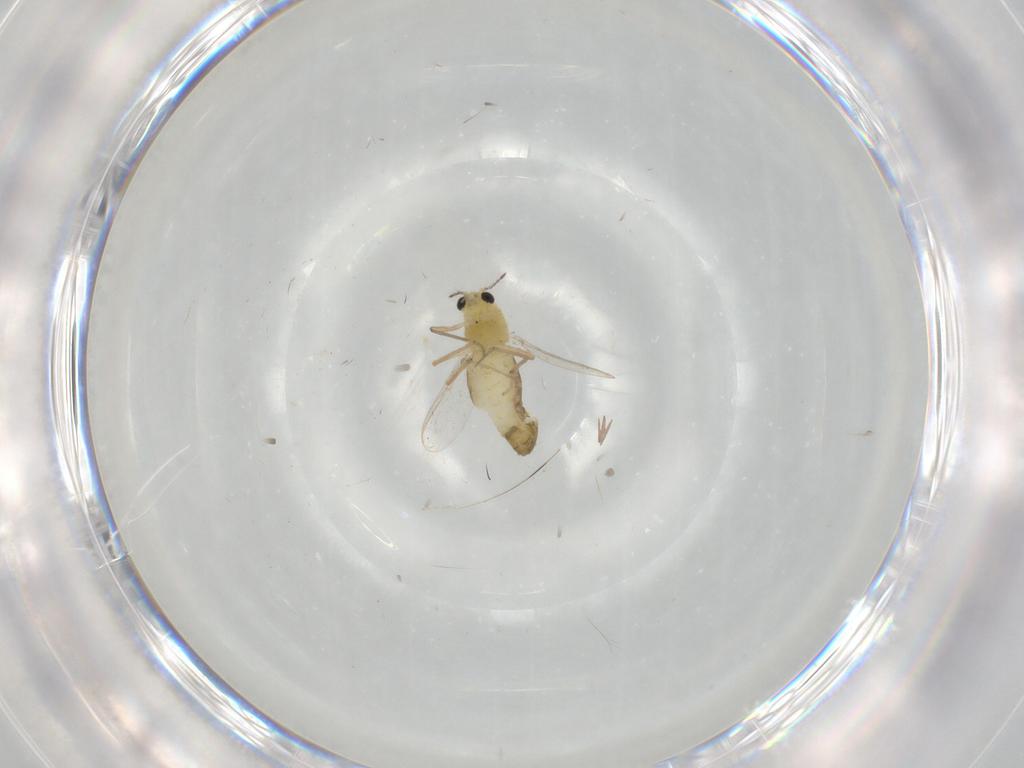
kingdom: Animalia
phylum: Arthropoda
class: Insecta
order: Diptera
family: Chironomidae
